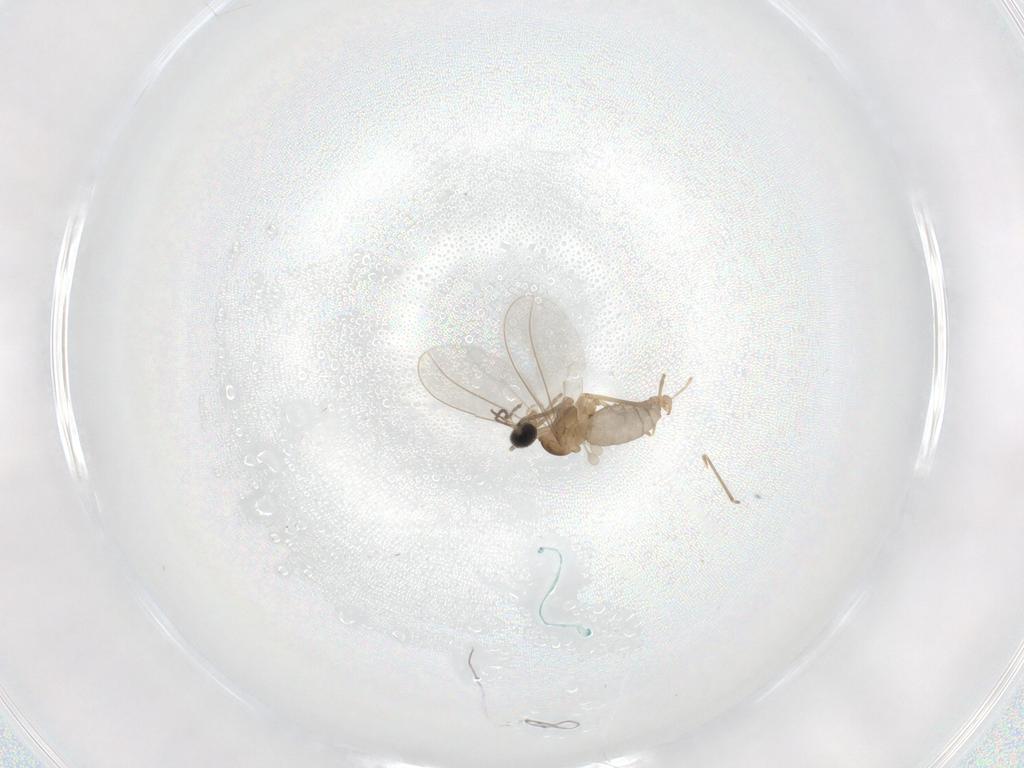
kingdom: Animalia
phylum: Arthropoda
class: Insecta
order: Diptera
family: Cecidomyiidae
